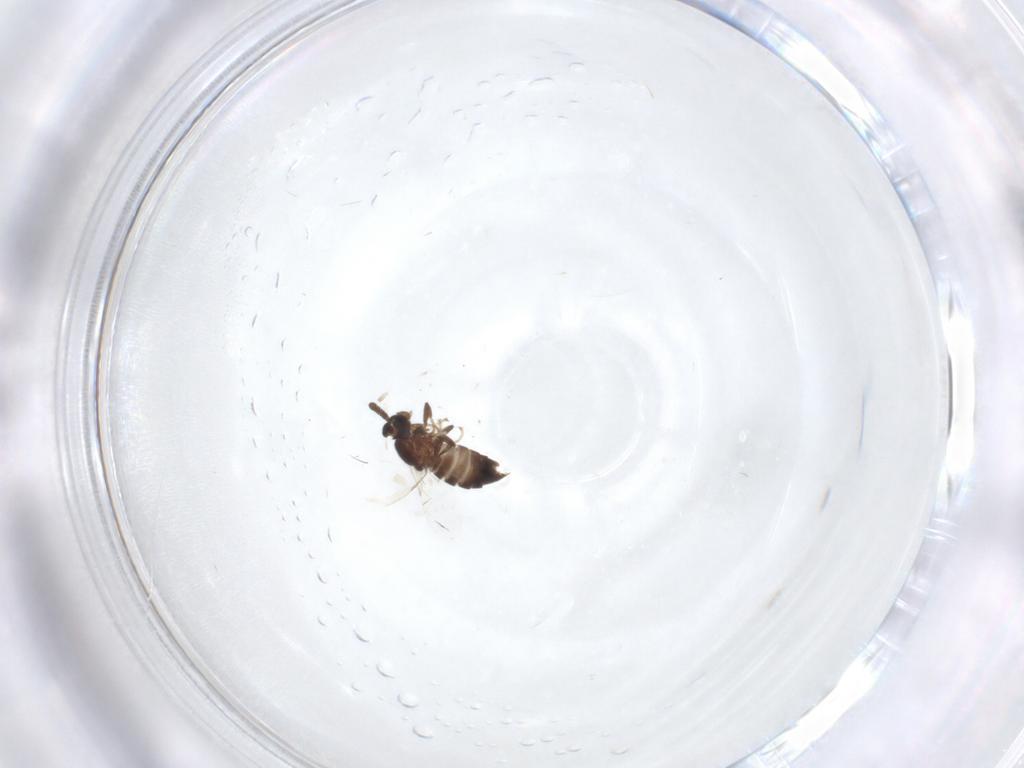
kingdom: Animalia
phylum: Arthropoda
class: Insecta
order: Diptera
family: Scatopsidae
